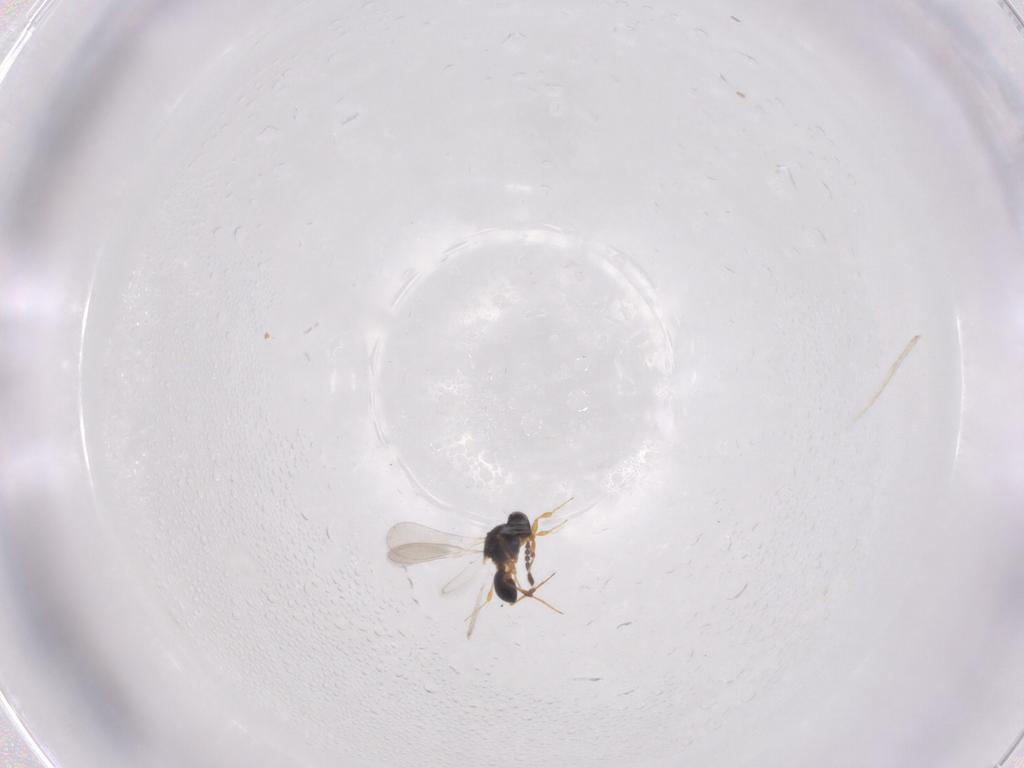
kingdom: Animalia
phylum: Arthropoda
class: Insecta
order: Hymenoptera
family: Platygastridae
